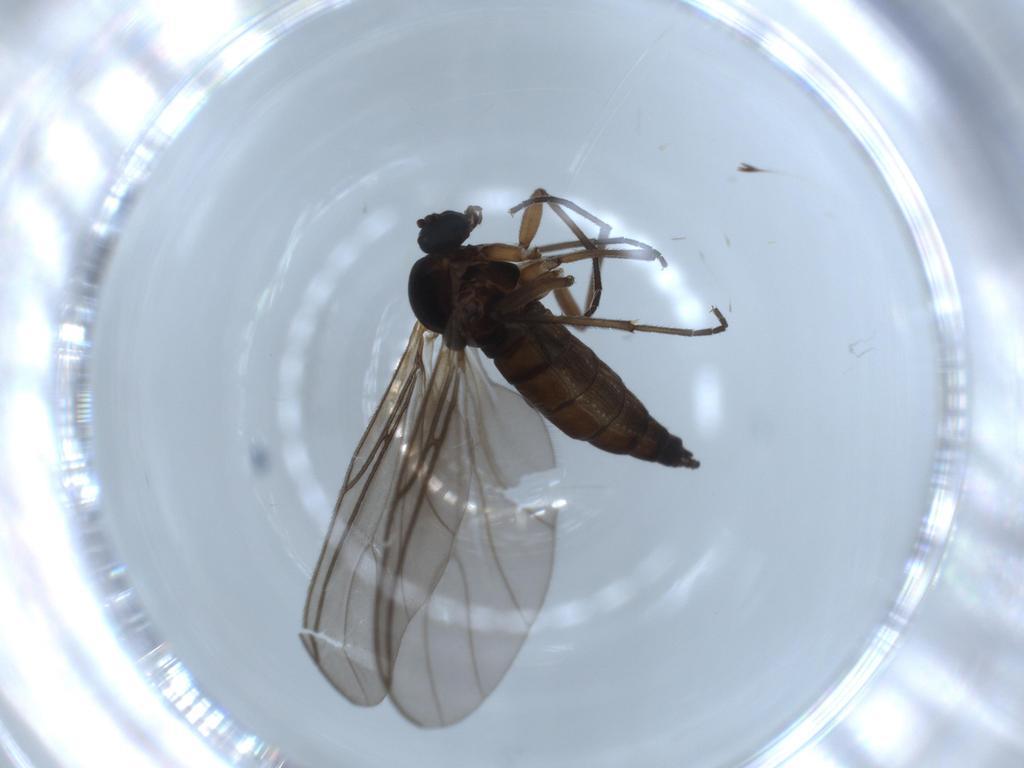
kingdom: Animalia
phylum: Arthropoda
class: Insecta
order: Diptera
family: Sciaridae
